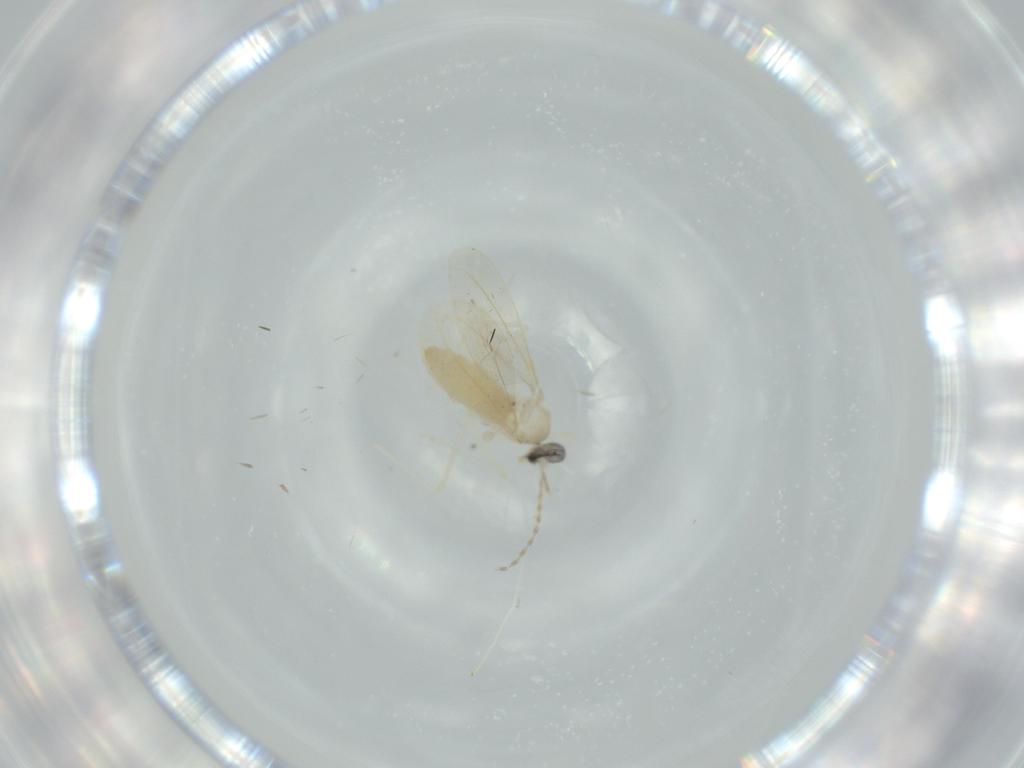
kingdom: Animalia
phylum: Arthropoda
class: Insecta
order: Diptera
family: Cecidomyiidae
